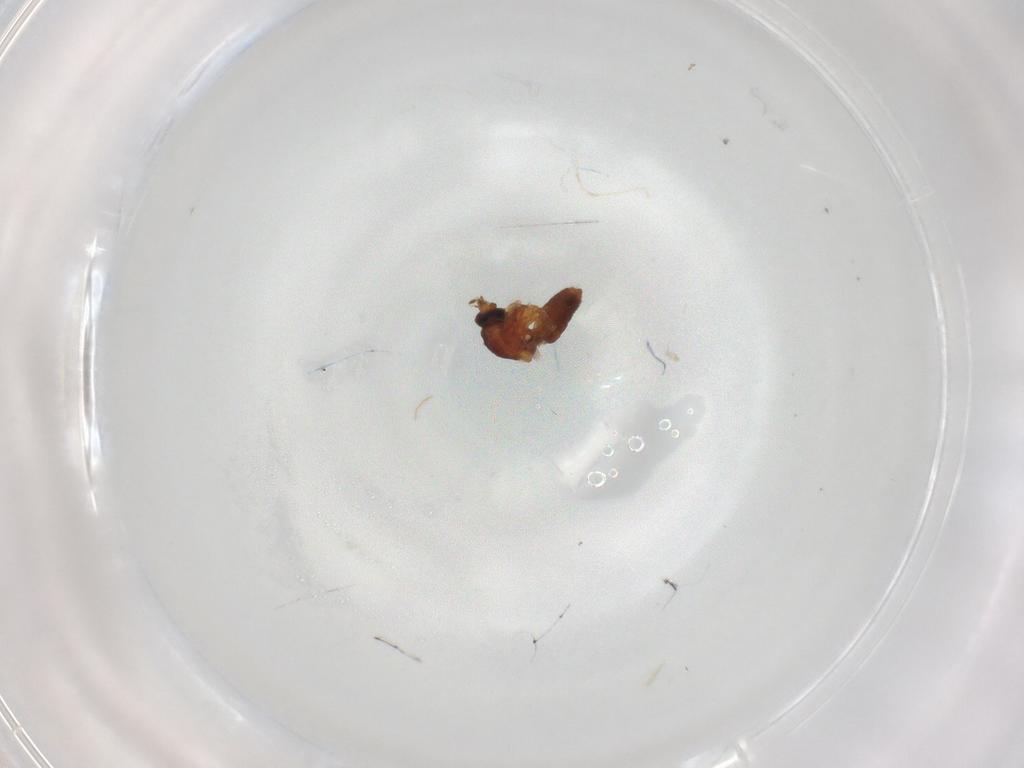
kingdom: Animalia
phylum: Arthropoda
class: Insecta
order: Diptera
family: Ceratopogonidae
